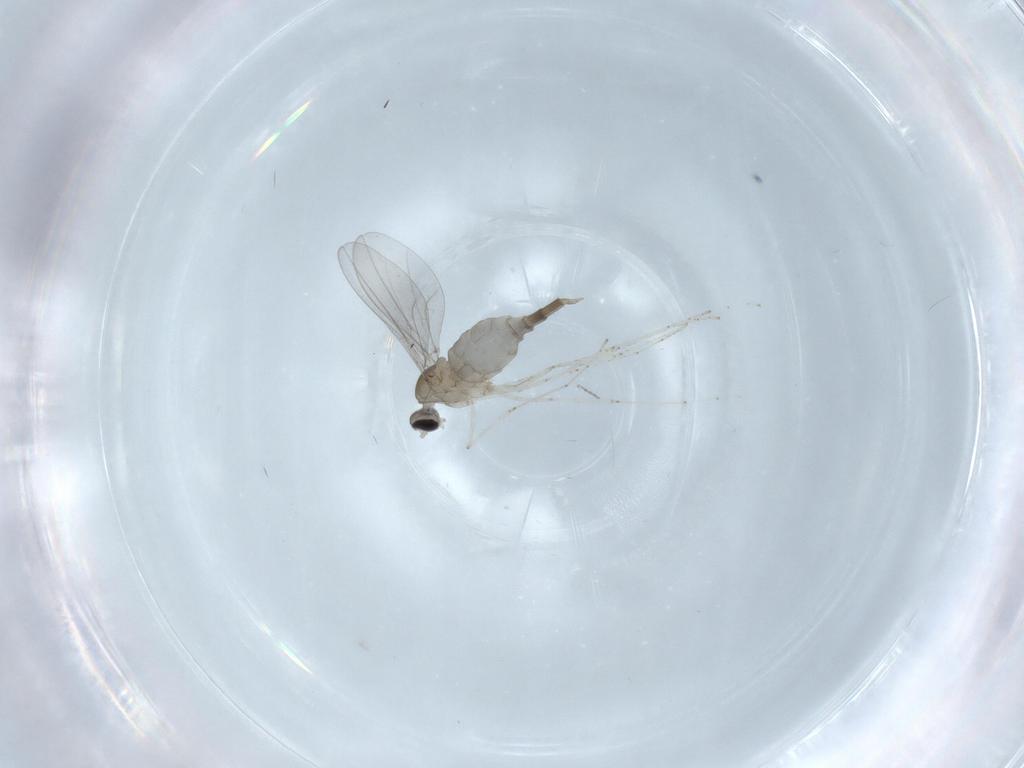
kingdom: Animalia
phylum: Arthropoda
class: Insecta
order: Diptera
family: Cecidomyiidae
